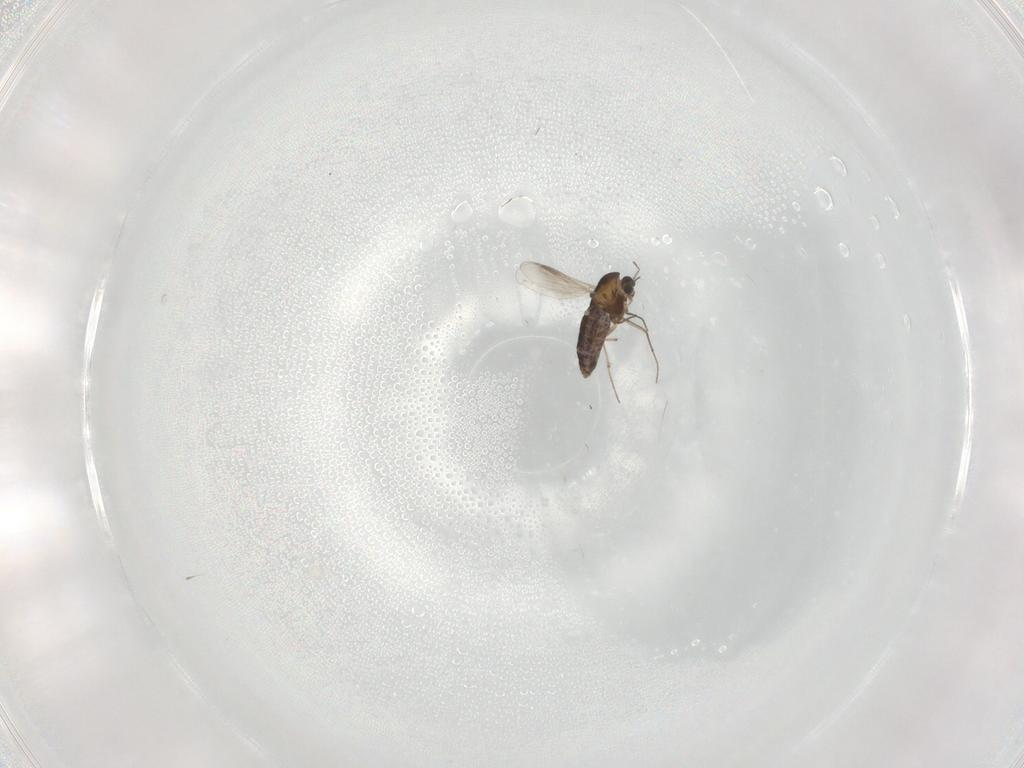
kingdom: Animalia
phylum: Arthropoda
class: Insecta
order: Diptera
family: Chironomidae
